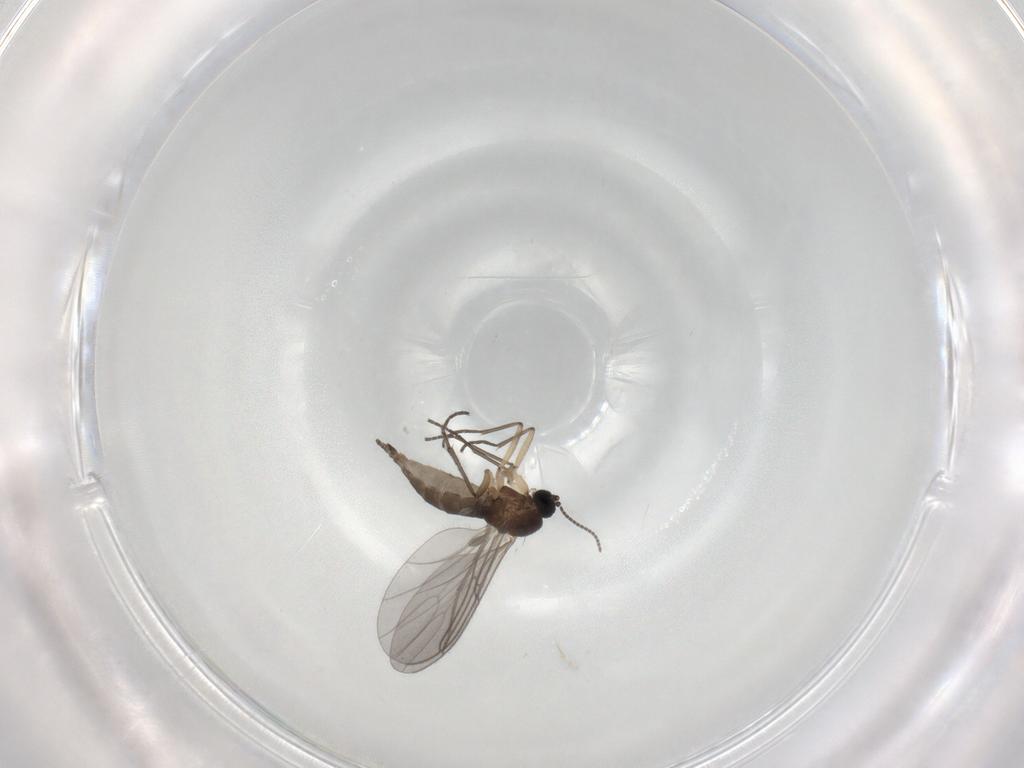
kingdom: Animalia
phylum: Arthropoda
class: Insecta
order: Diptera
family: Sciaridae
